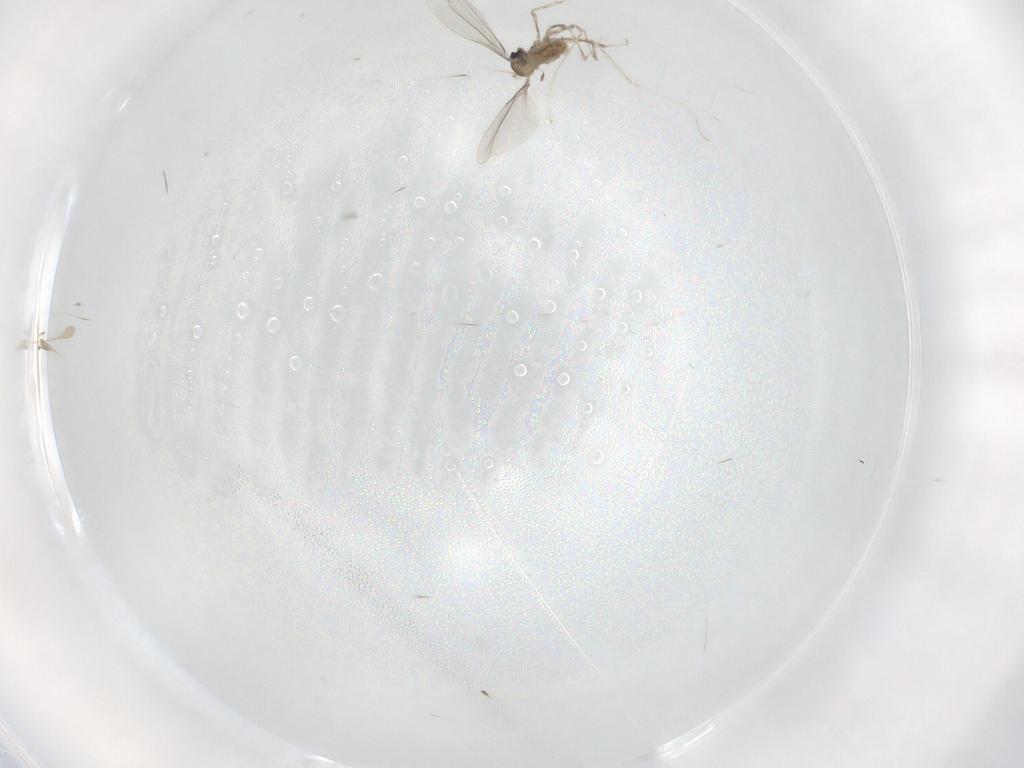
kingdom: Animalia
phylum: Arthropoda
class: Insecta
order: Diptera
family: Cecidomyiidae
